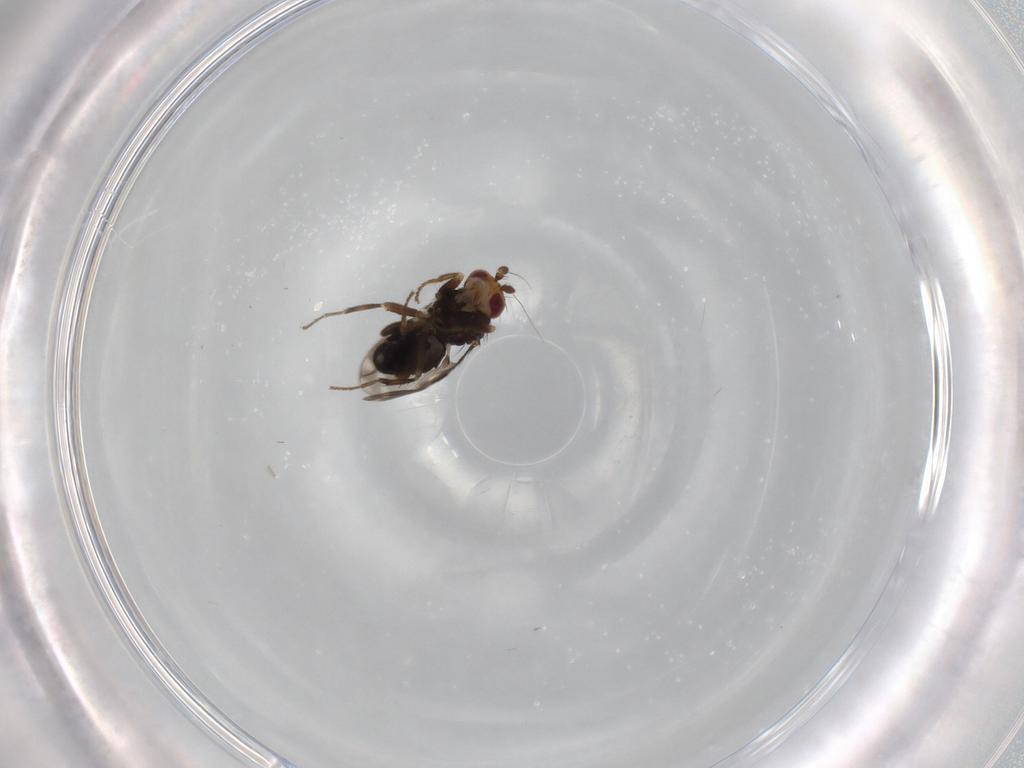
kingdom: Animalia
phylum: Arthropoda
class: Insecta
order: Diptera
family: Sphaeroceridae
